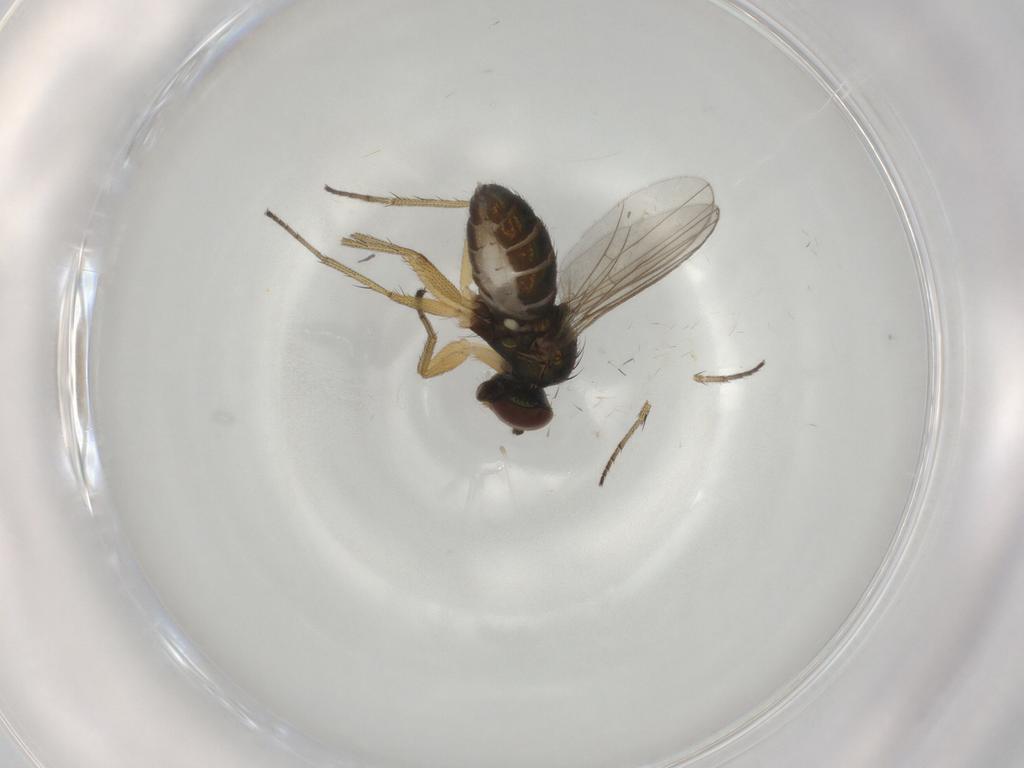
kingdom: Animalia
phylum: Arthropoda
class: Insecta
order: Diptera
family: Dolichopodidae
